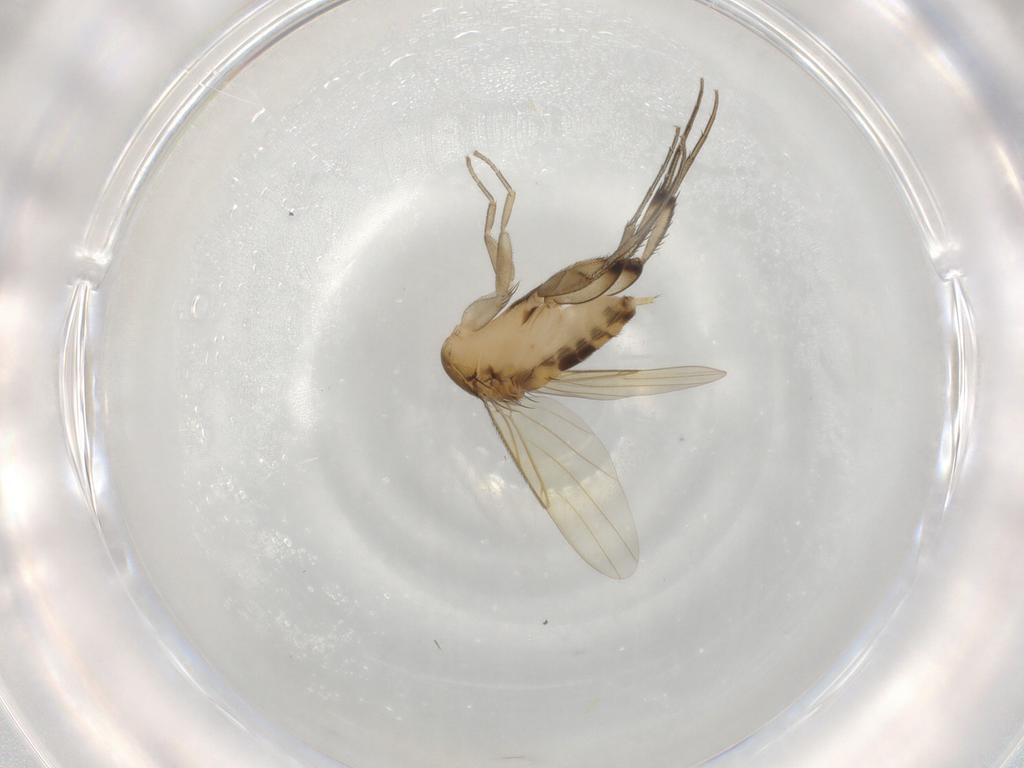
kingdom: Animalia
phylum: Arthropoda
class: Insecta
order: Diptera
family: Phoridae
